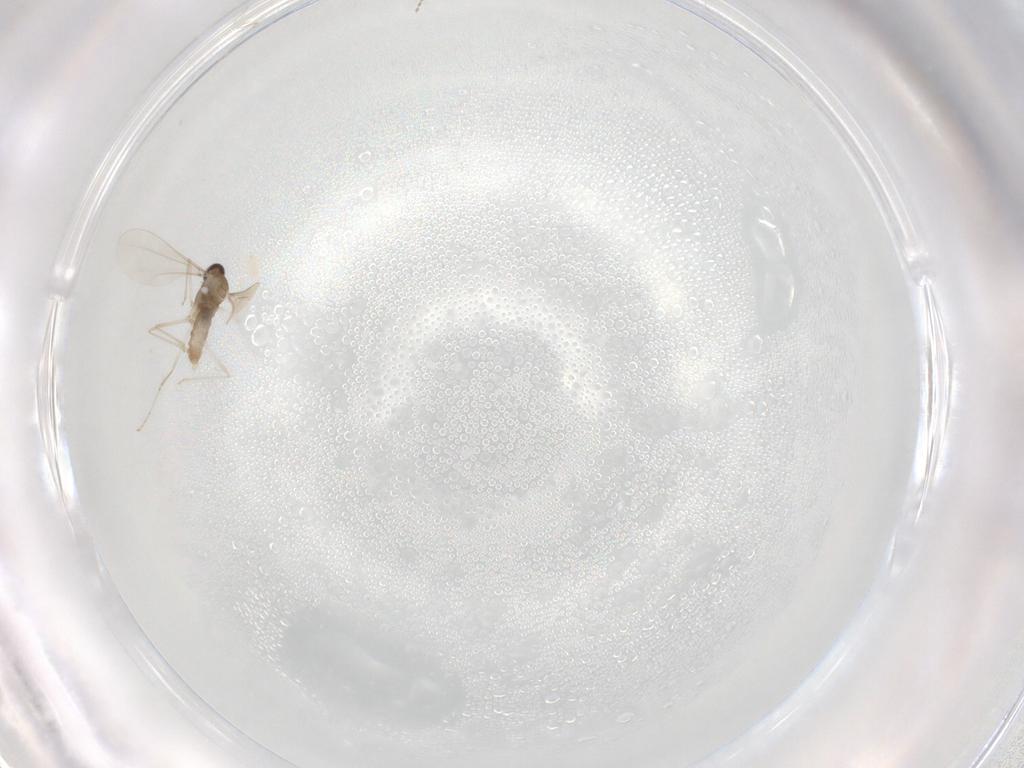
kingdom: Animalia
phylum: Arthropoda
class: Insecta
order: Diptera
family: Cecidomyiidae
